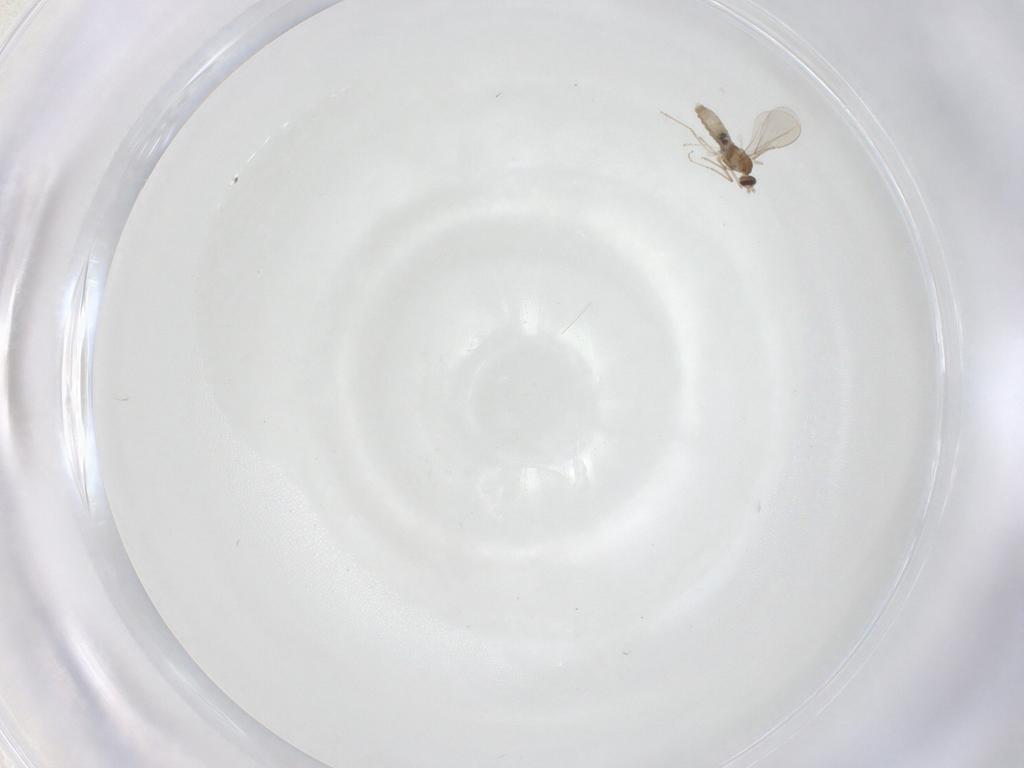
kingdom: Animalia
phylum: Arthropoda
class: Insecta
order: Diptera
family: Cecidomyiidae
